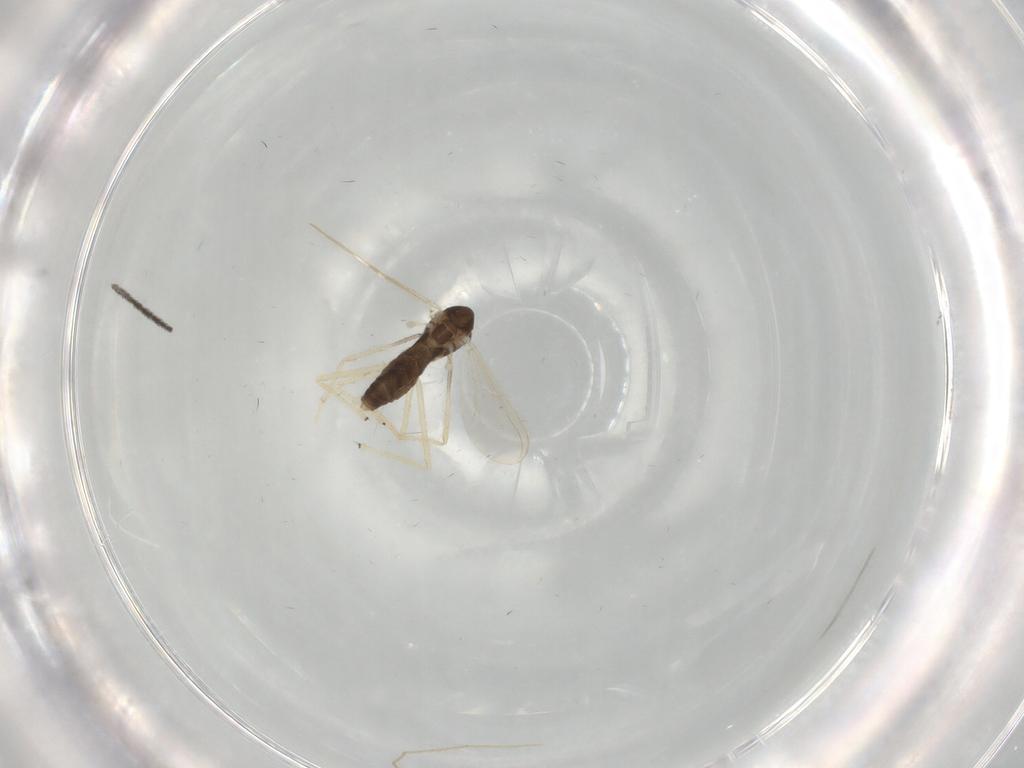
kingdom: Animalia
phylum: Arthropoda
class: Insecta
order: Diptera
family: Chironomidae
